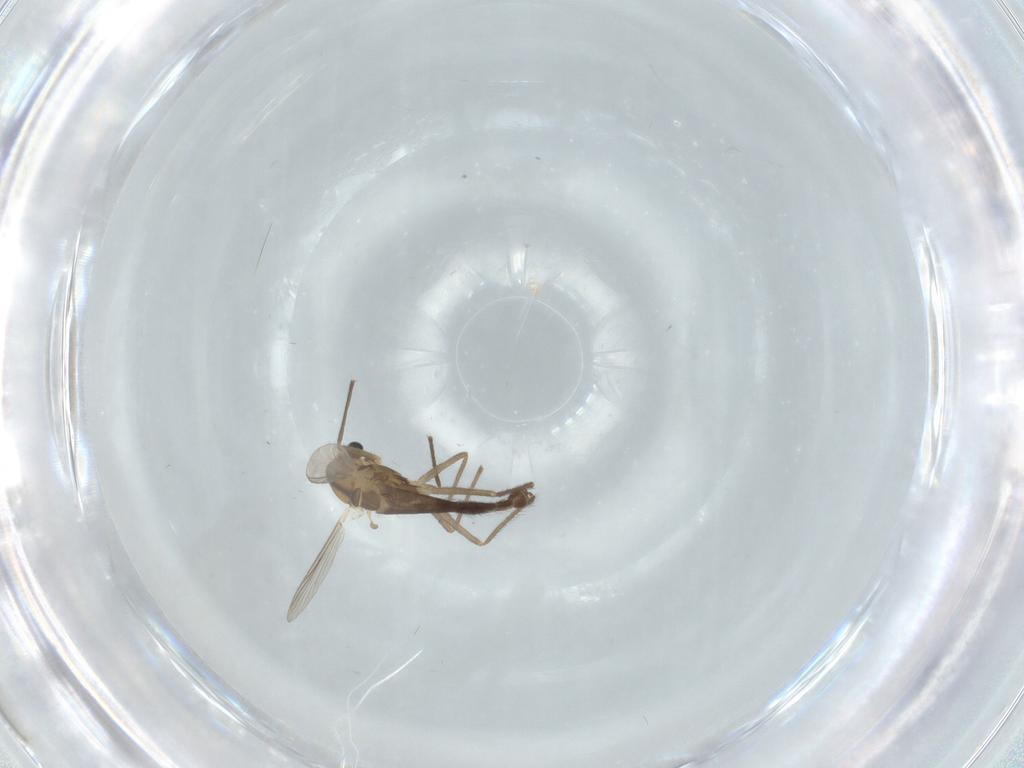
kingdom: Animalia
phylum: Arthropoda
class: Insecta
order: Diptera
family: Chironomidae
